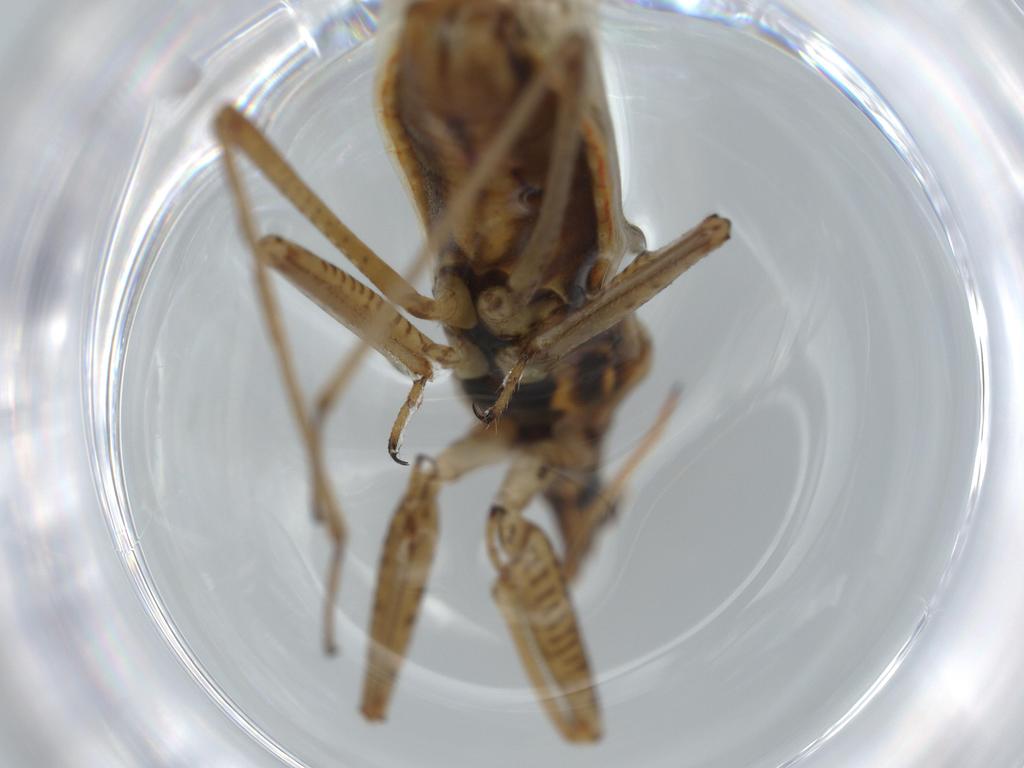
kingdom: Animalia
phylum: Arthropoda
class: Insecta
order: Hemiptera
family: Nabidae
